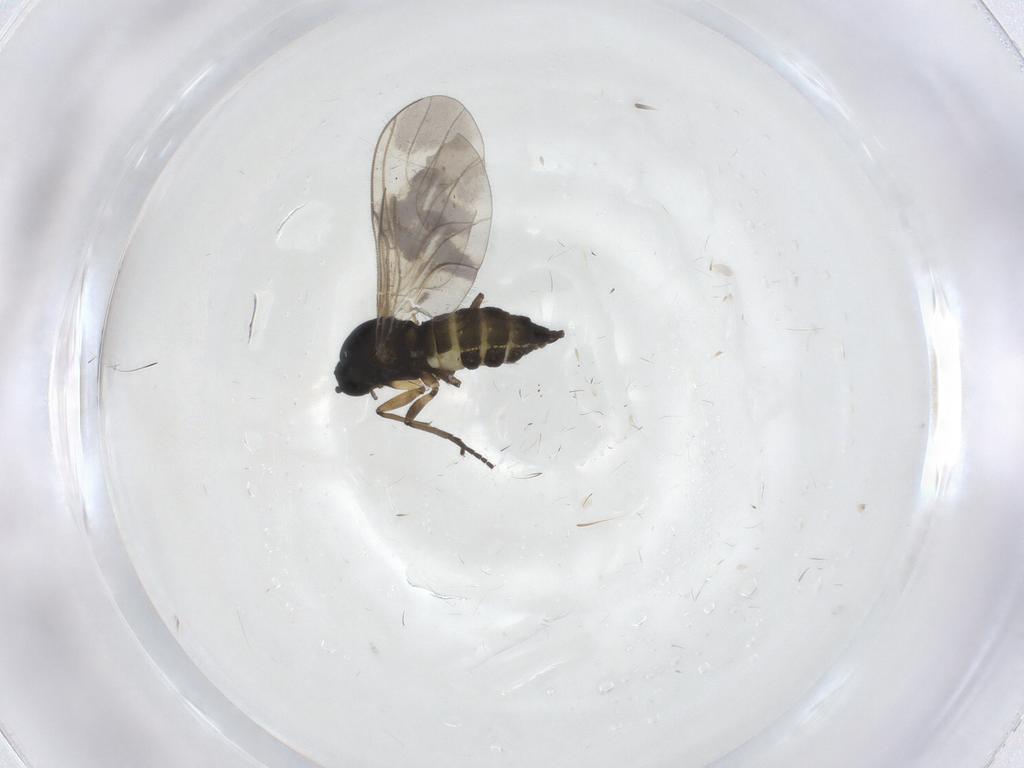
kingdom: Animalia
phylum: Arthropoda
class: Insecta
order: Diptera
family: Sciaridae
